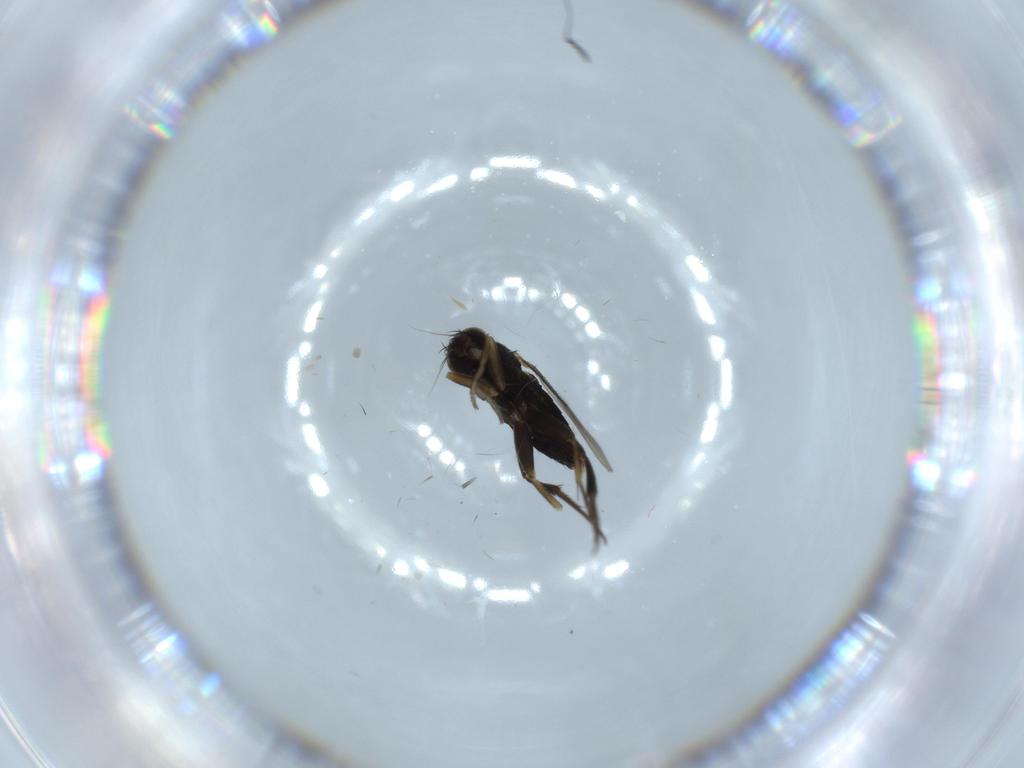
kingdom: Animalia
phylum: Arthropoda
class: Insecta
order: Diptera
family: Phoridae
